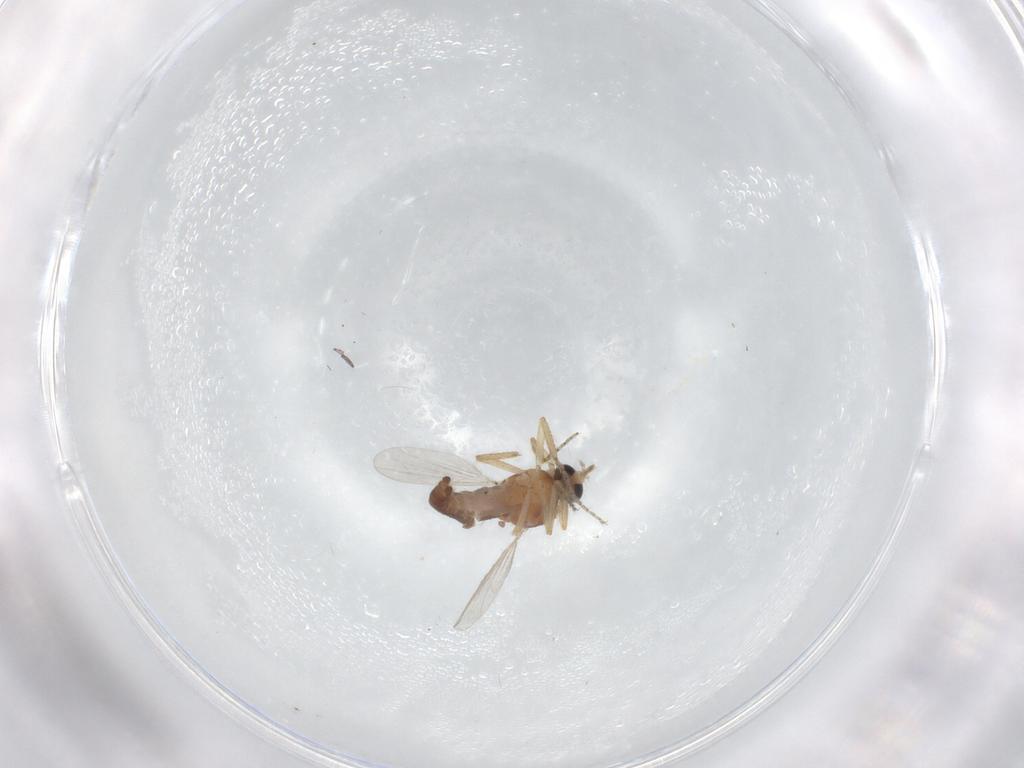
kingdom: Animalia
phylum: Arthropoda
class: Insecta
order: Diptera
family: Ceratopogonidae
